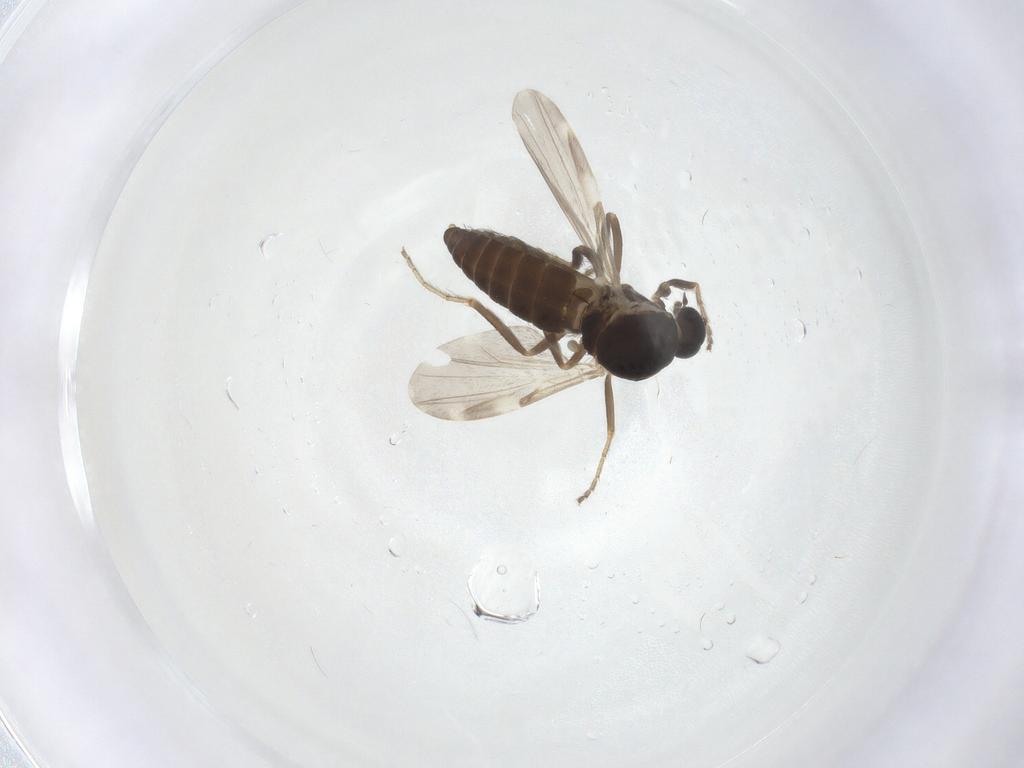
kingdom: Animalia
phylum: Arthropoda
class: Insecta
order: Diptera
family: Ceratopogonidae
